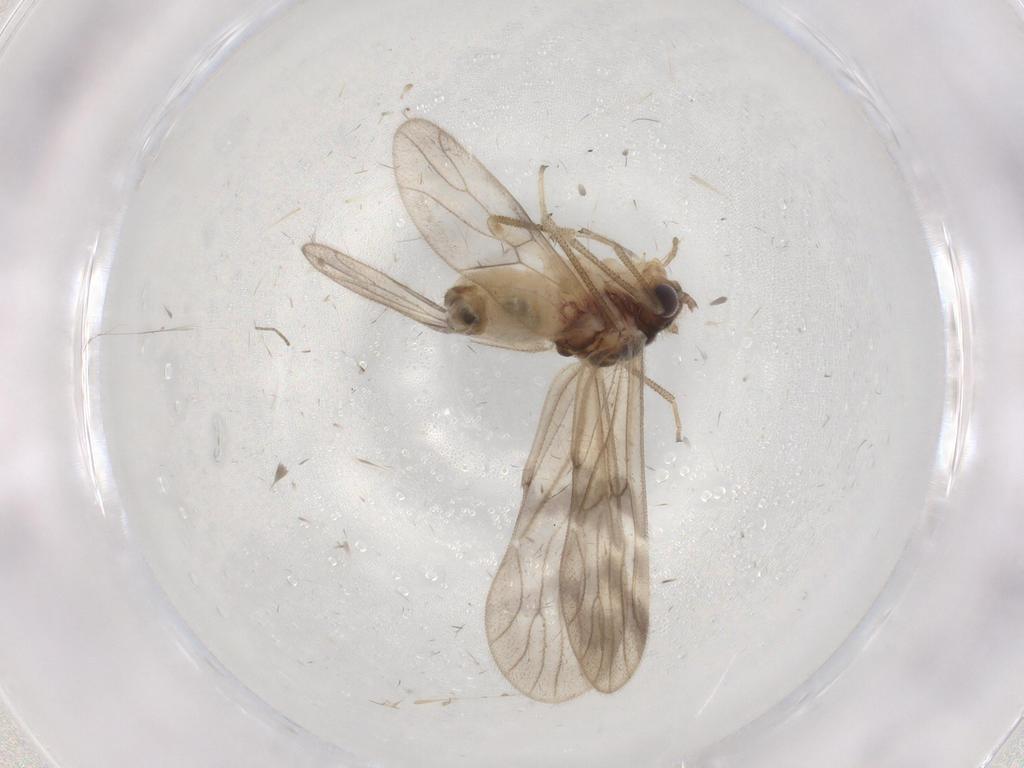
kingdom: Animalia
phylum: Arthropoda
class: Insecta
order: Psocodea
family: Amphipsocidae
